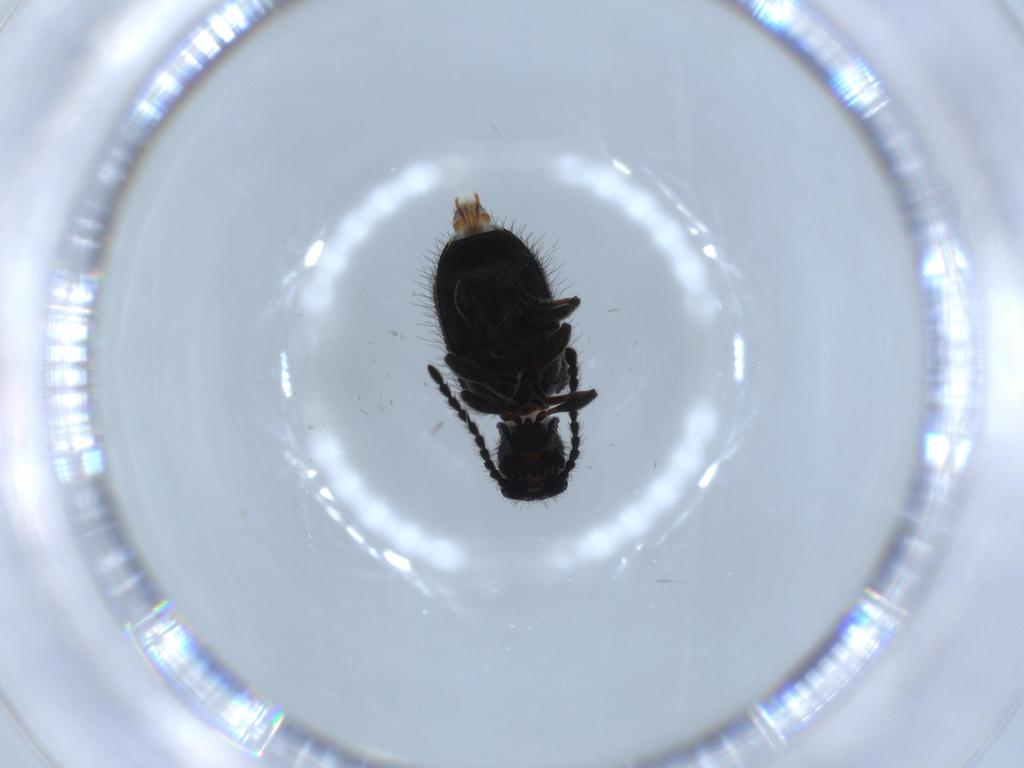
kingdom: Animalia
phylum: Arthropoda
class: Insecta
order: Coleoptera
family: Ptinidae
